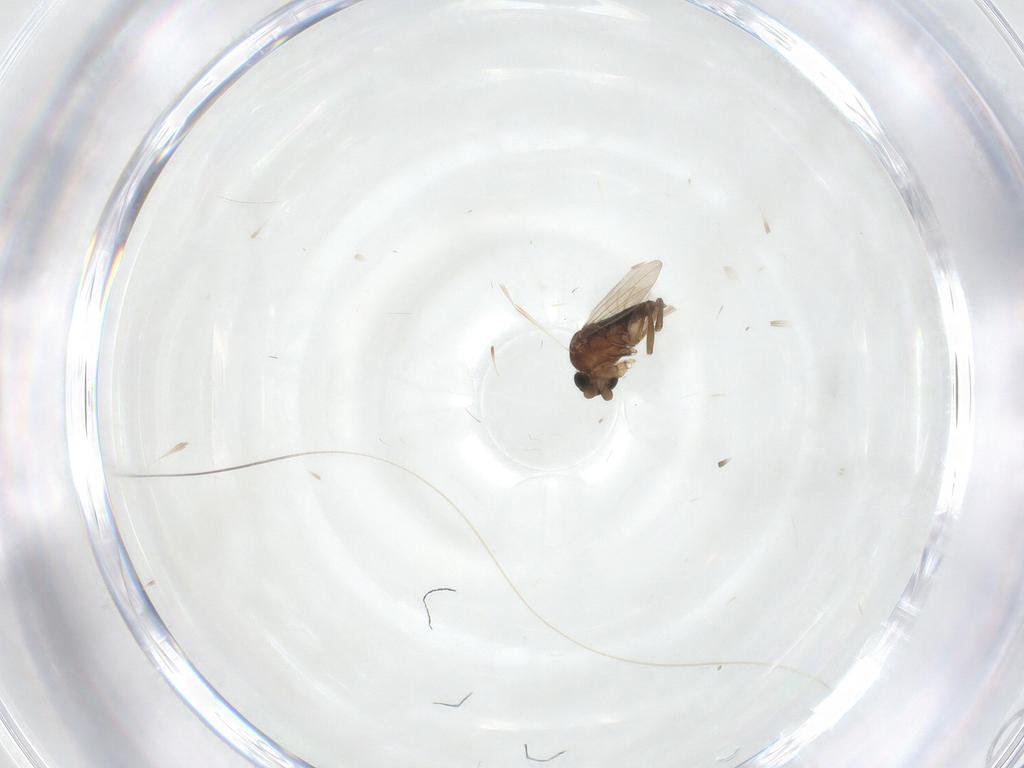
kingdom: Animalia
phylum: Arthropoda
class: Insecta
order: Diptera
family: Phoridae
